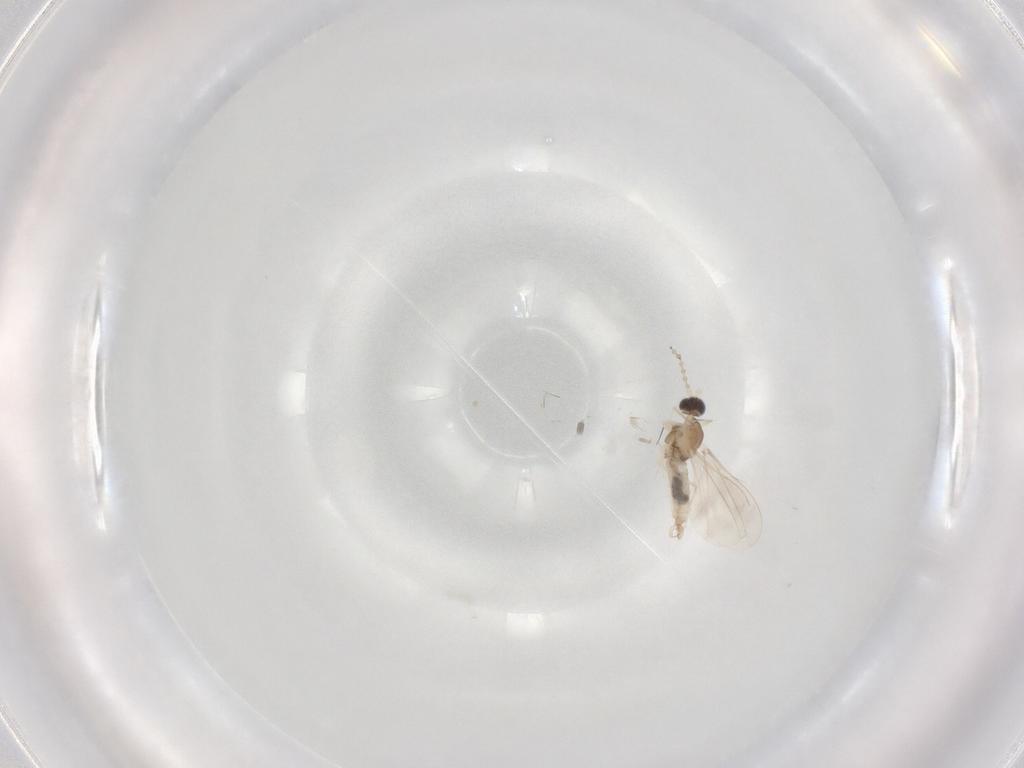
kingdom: Animalia
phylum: Arthropoda
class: Insecta
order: Diptera
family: Cecidomyiidae
